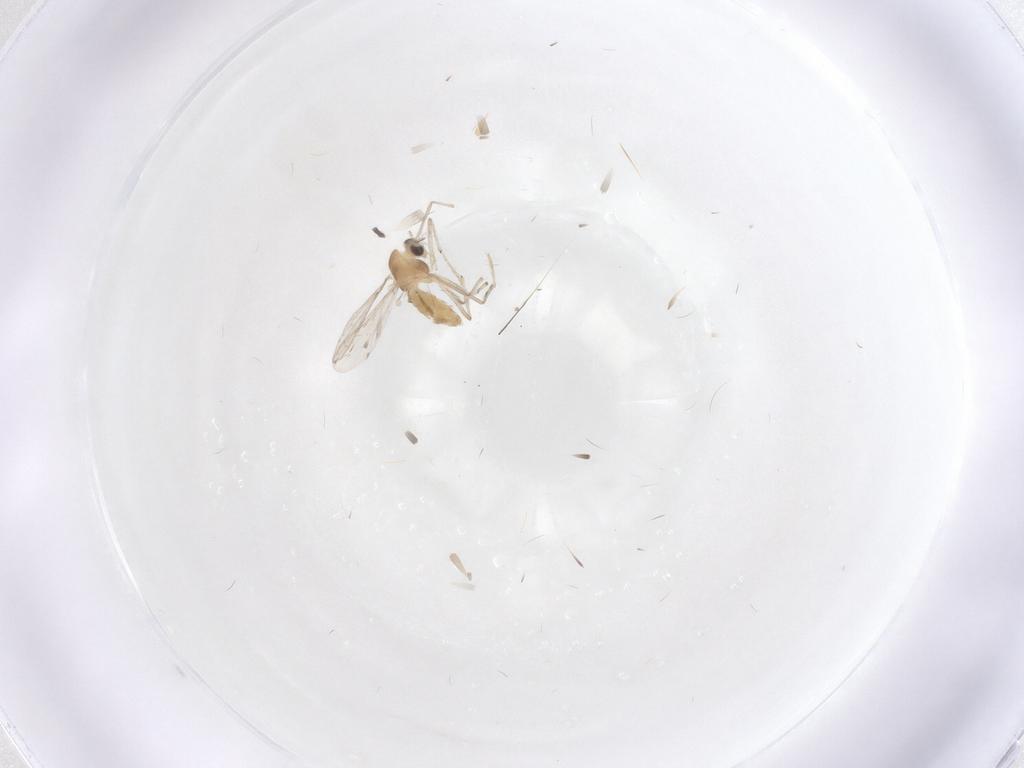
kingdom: Animalia
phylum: Arthropoda
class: Insecta
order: Diptera
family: Chironomidae
